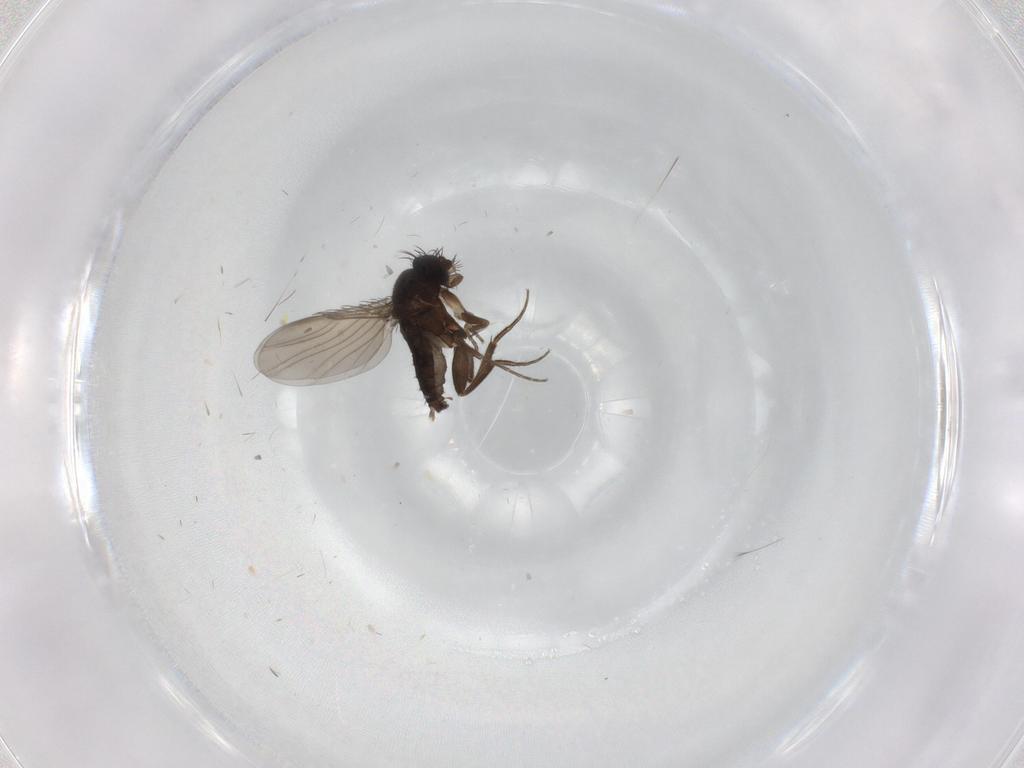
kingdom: Animalia
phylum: Arthropoda
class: Insecta
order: Diptera
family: Phoridae
